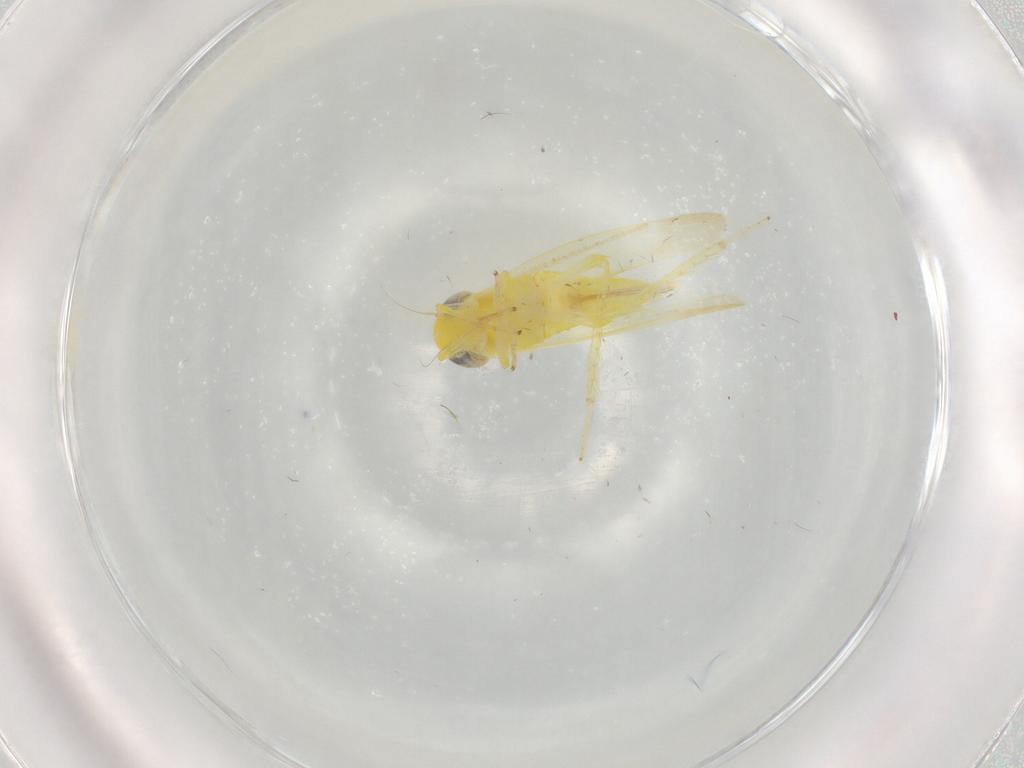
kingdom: Animalia
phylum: Arthropoda
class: Insecta
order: Hemiptera
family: Cicadellidae
